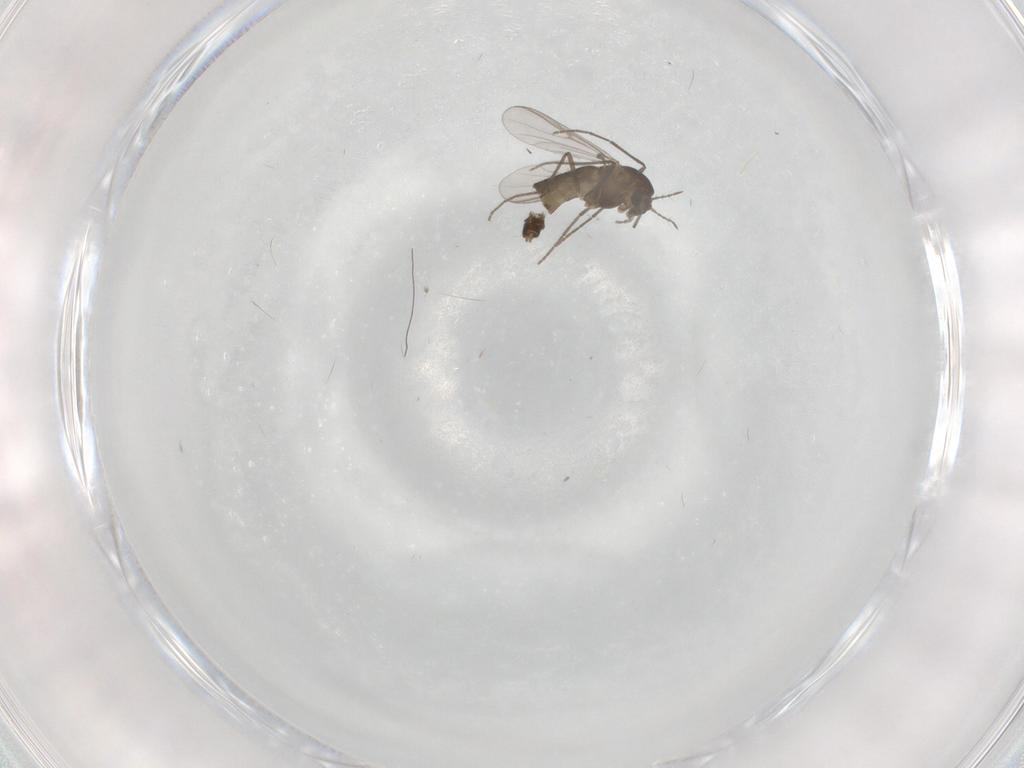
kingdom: Animalia
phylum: Arthropoda
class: Insecta
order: Diptera
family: Chironomidae
